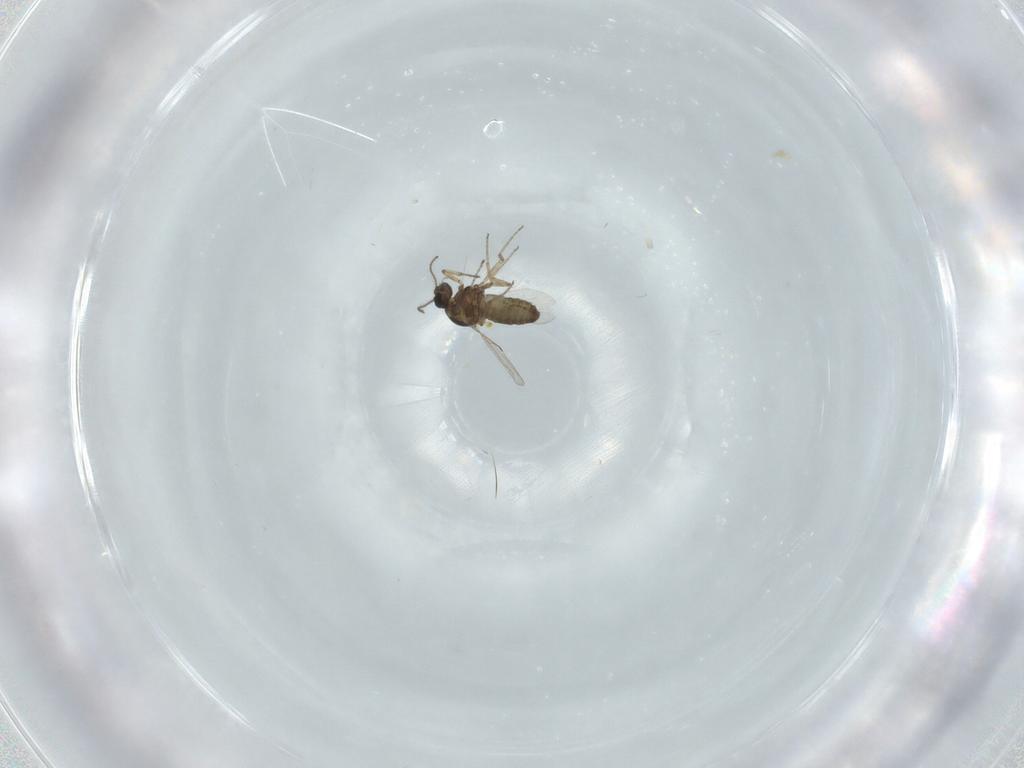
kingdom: Animalia
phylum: Arthropoda
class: Insecta
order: Diptera
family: Ceratopogonidae
